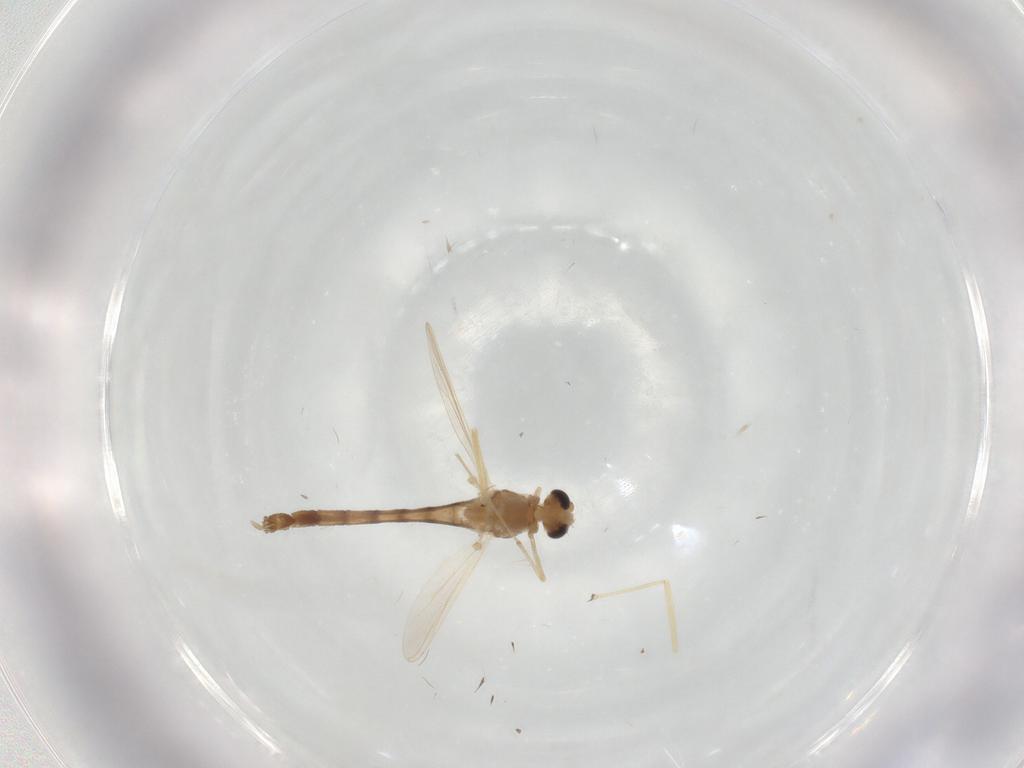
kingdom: Animalia
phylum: Arthropoda
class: Insecta
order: Diptera
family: Chironomidae
